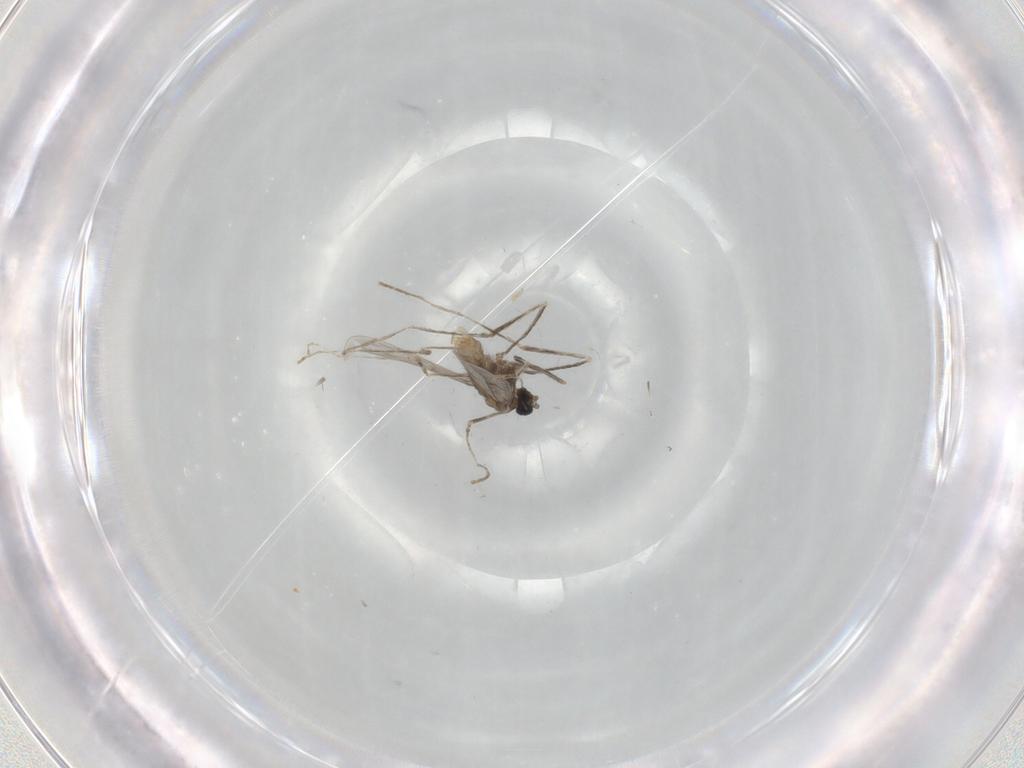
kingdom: Animalia
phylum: Arthropoda
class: Insecta
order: Diptera
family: Cecidomyiidae
